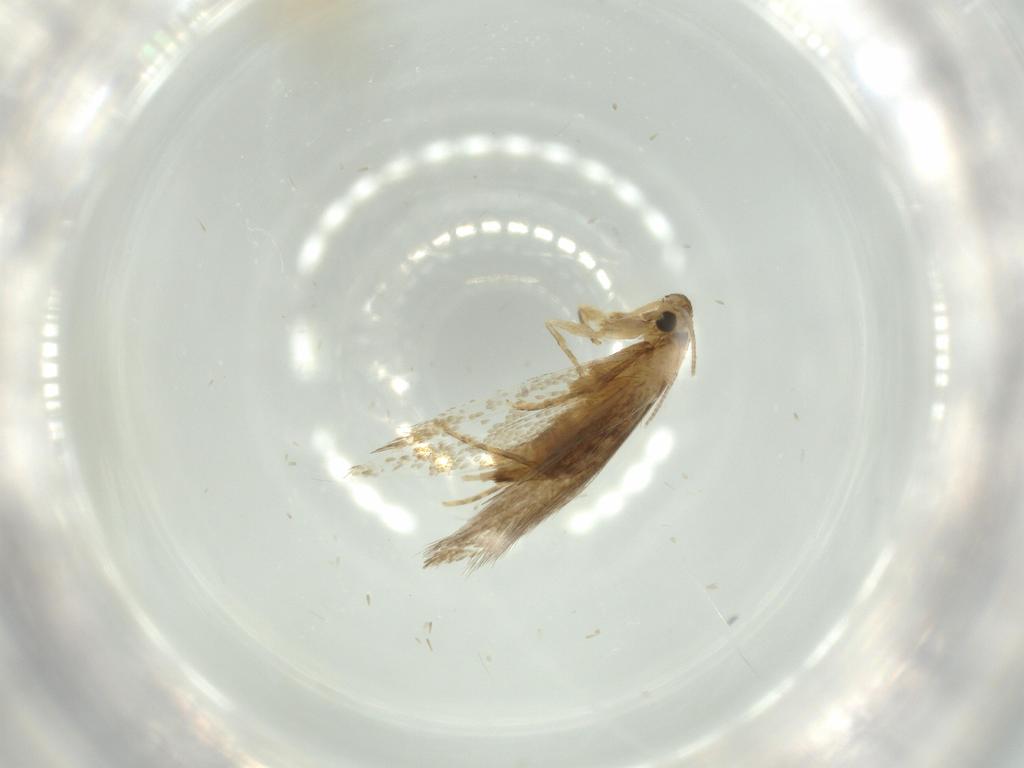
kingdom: Animalia
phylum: Arthropoda
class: Insecta
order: Lepidoptera
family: Tineidae
